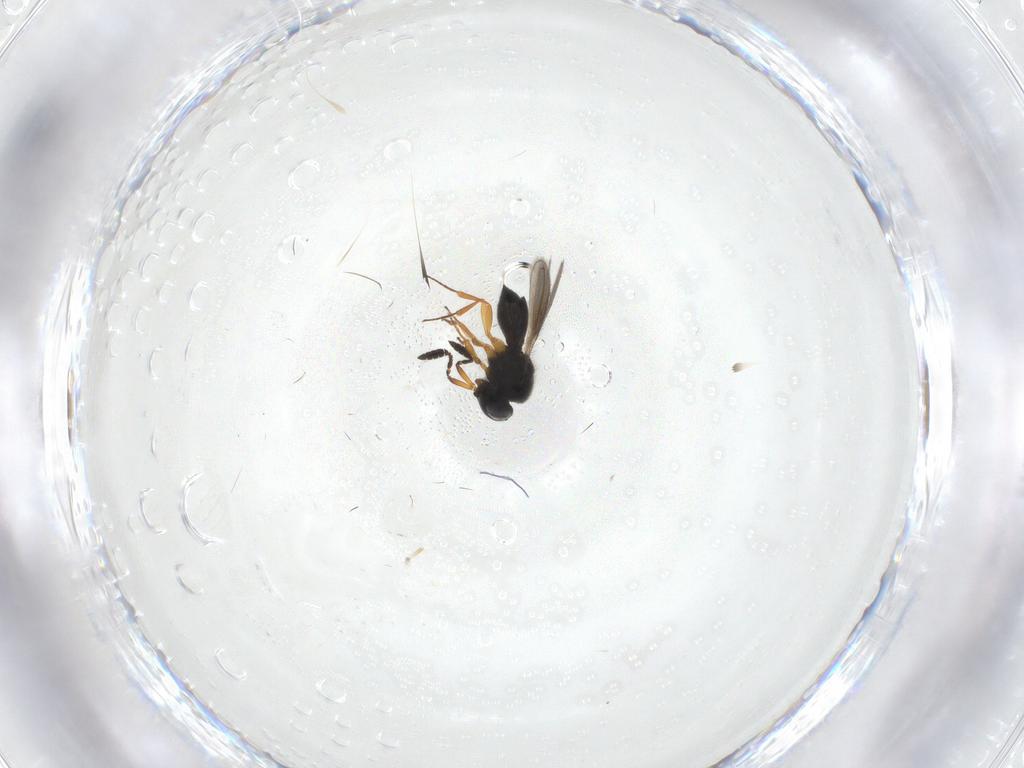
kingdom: Animalia
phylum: Arthropoda
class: Insecta
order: Hymenoptera
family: Scelionidae
